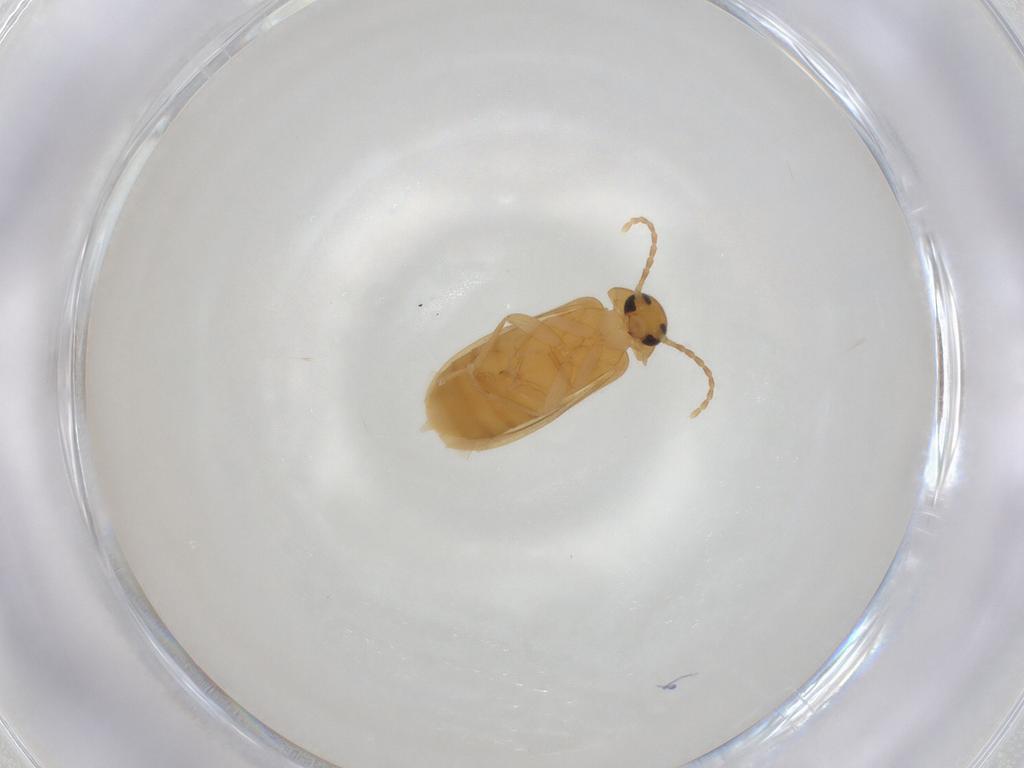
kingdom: Animalia
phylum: Arthropoda
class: Insecta
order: Coleoptera
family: Scraptiidae
